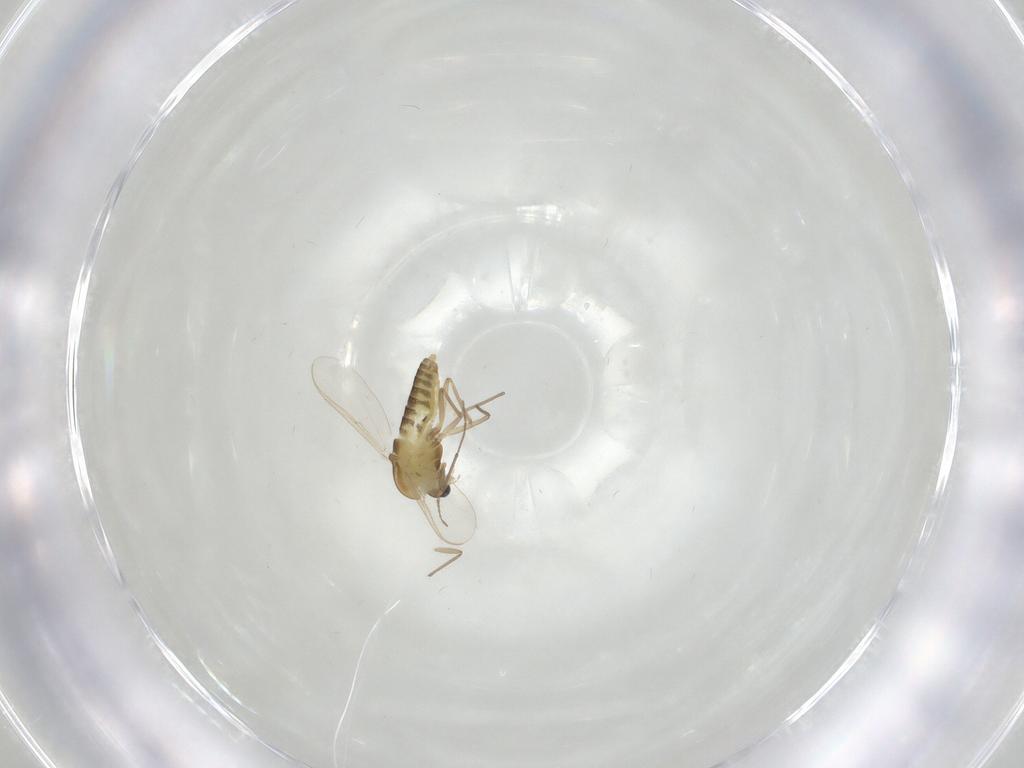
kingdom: Animalia
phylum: Arthropoda
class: Insecta
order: Diptera
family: Chironomidae
